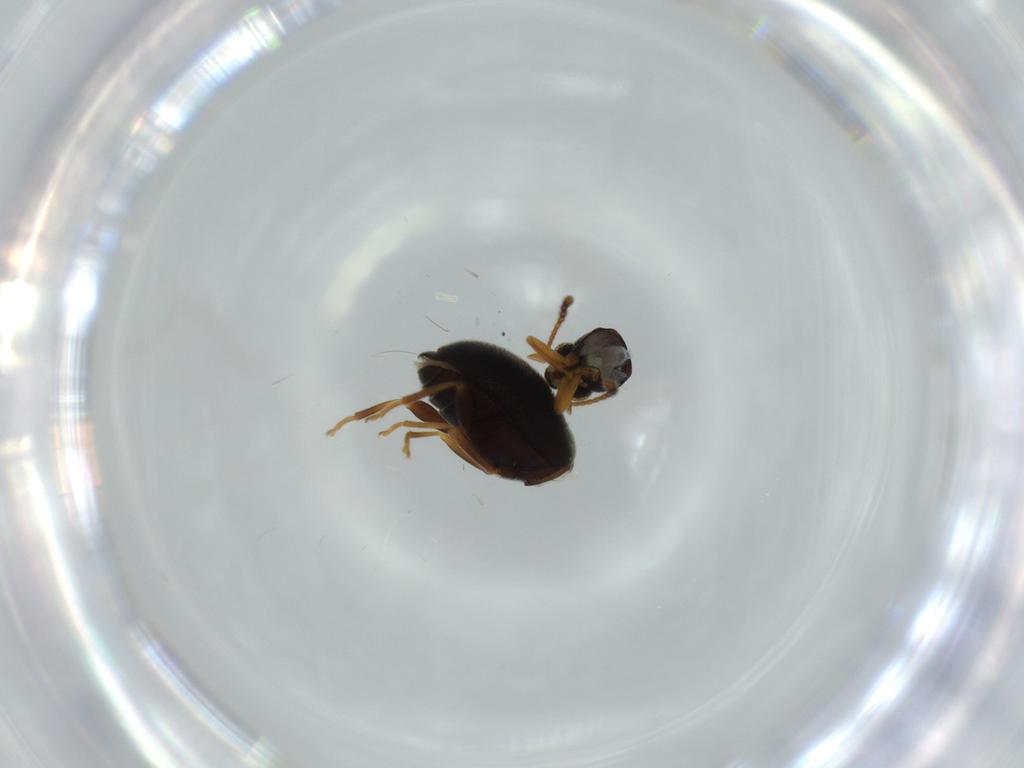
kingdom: Animalia
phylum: Arthropoda
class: Insecta
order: Coleoptera
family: Aderidae
